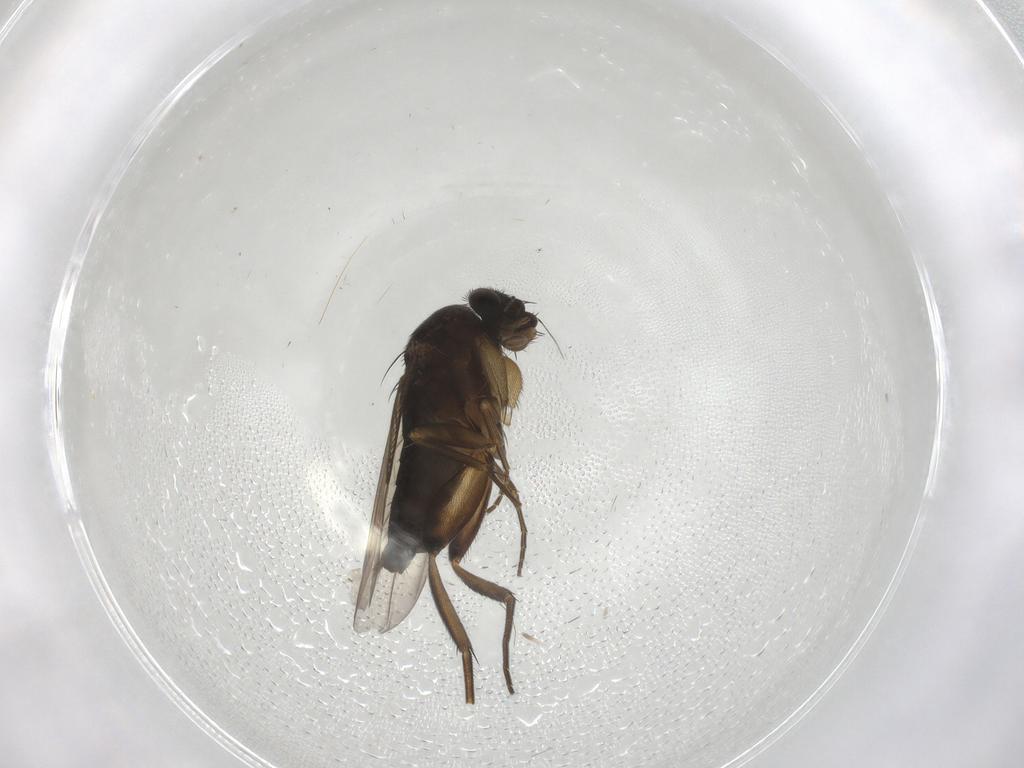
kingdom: Animalia
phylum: Arthropoda
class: Insecta
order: Diptera
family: Phoridae
